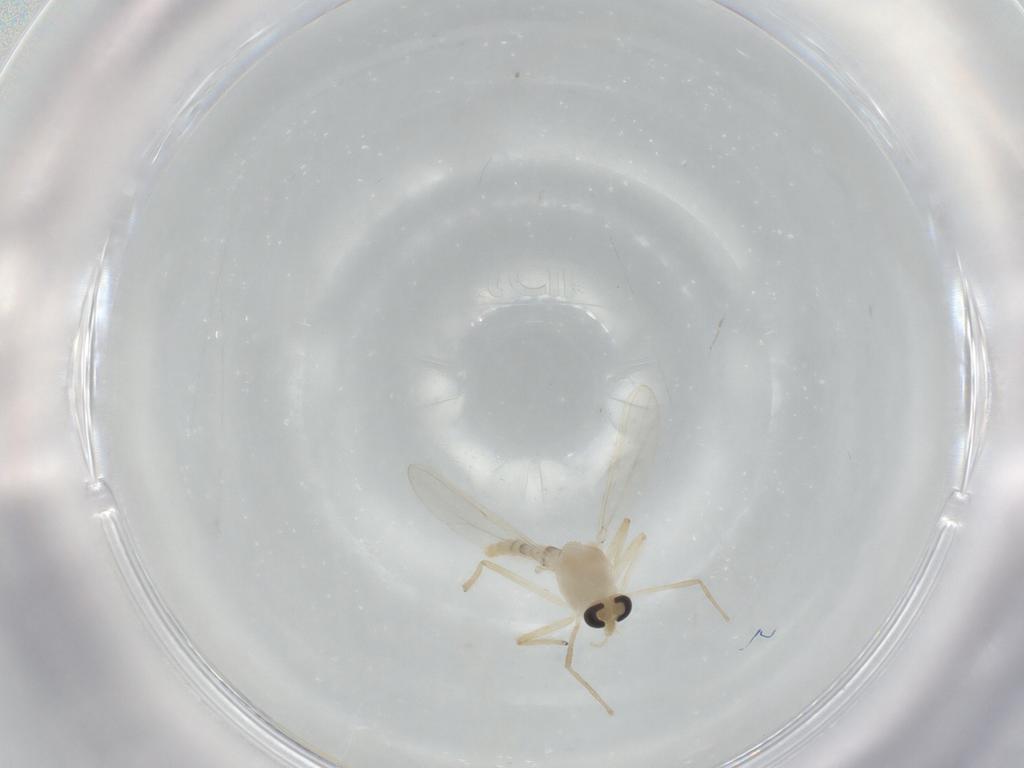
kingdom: Animalia
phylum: Arthropoda
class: Insecta
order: Diptera
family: Chironomidae
